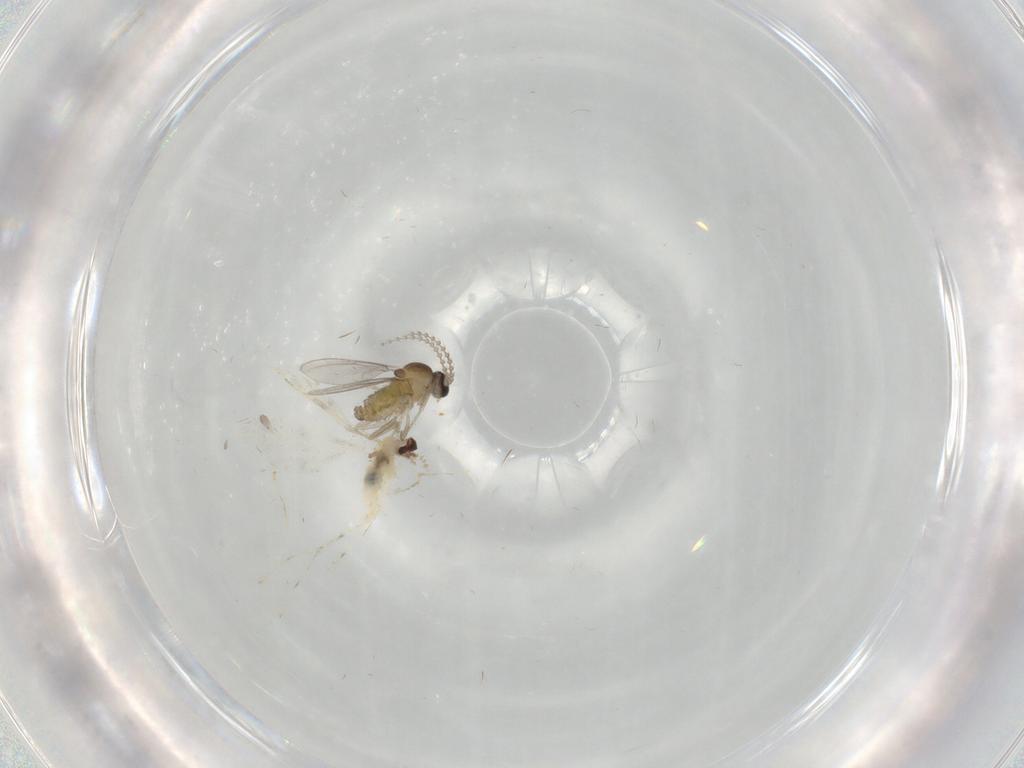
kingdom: Animalia
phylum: Arthropoda
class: Insecta
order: Diptera
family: Cecidomyiidae
